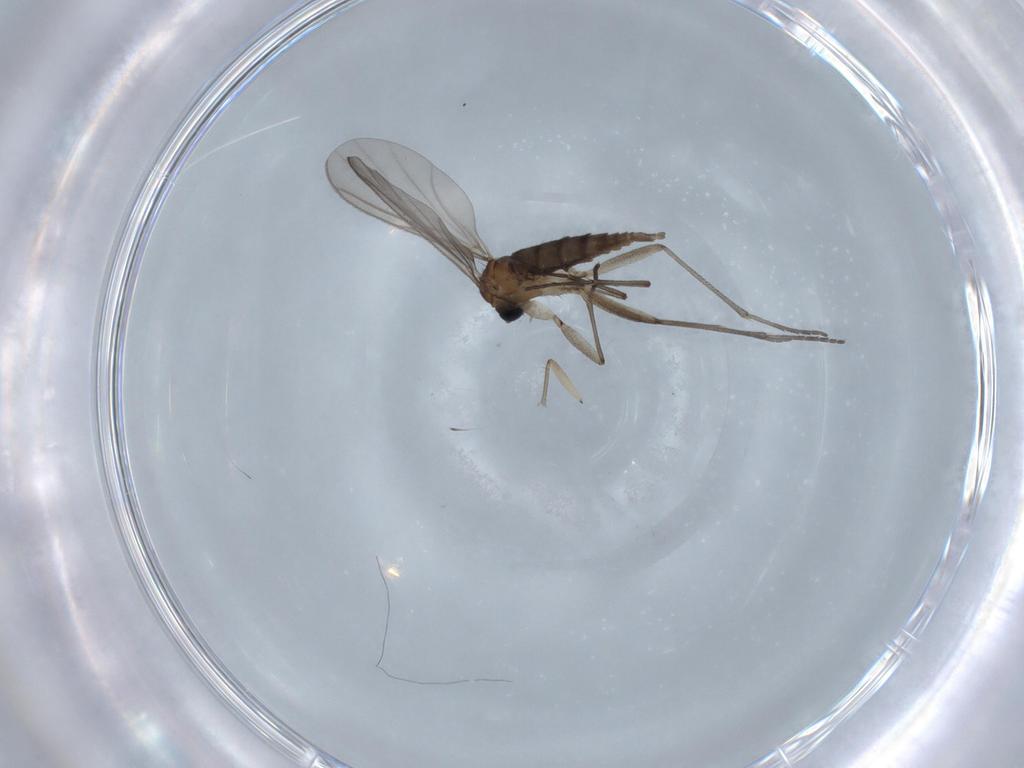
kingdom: Animalia
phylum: Arthropoda
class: Insecta
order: Diptera
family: Sciaridae
